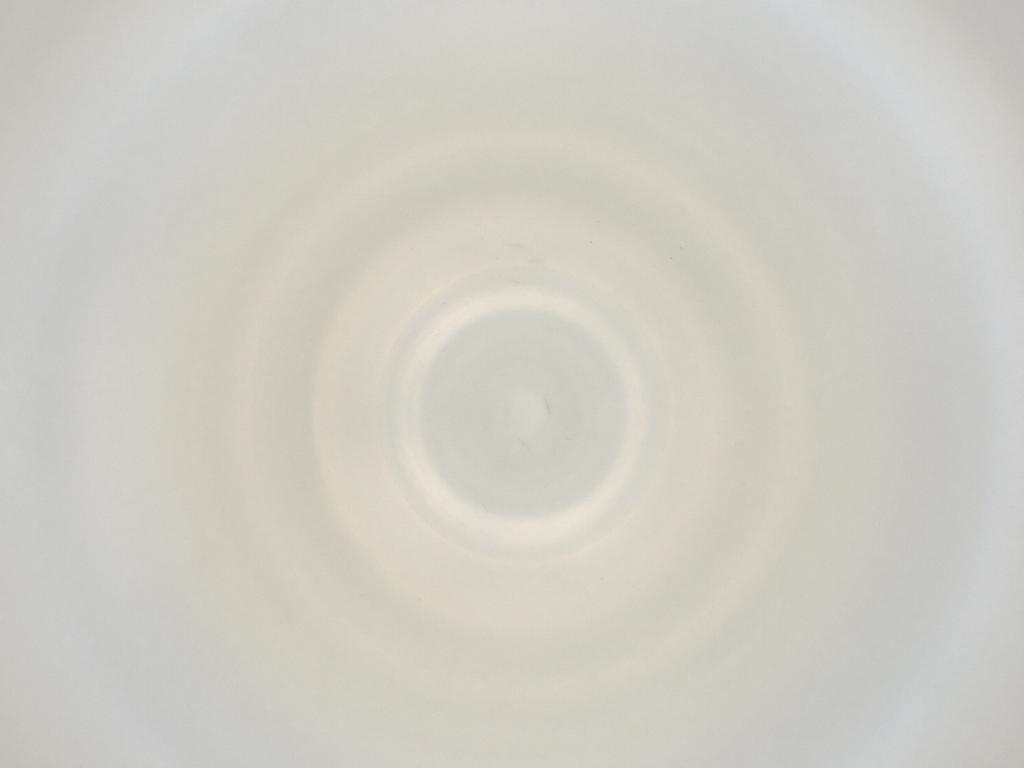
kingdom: Animalia
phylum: Arthropoda
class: Insecta
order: Diptera
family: Cecidomyiidae
